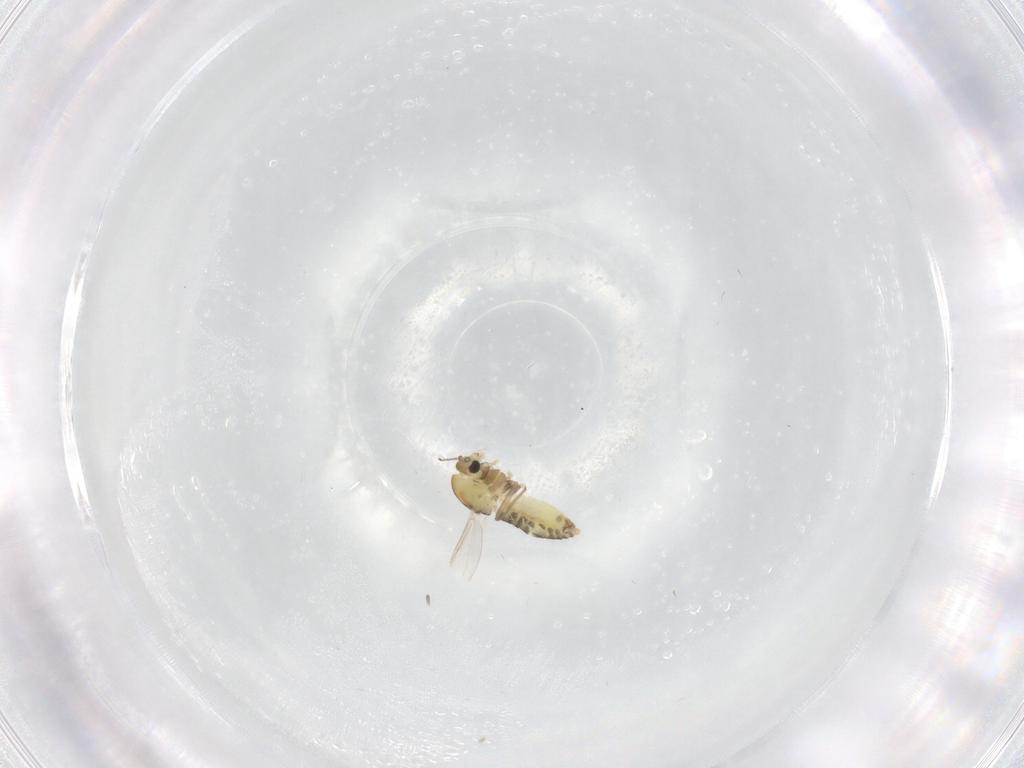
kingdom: Animalia
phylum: Arthropoda
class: Insecta
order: Diptera
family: Chironomidae
